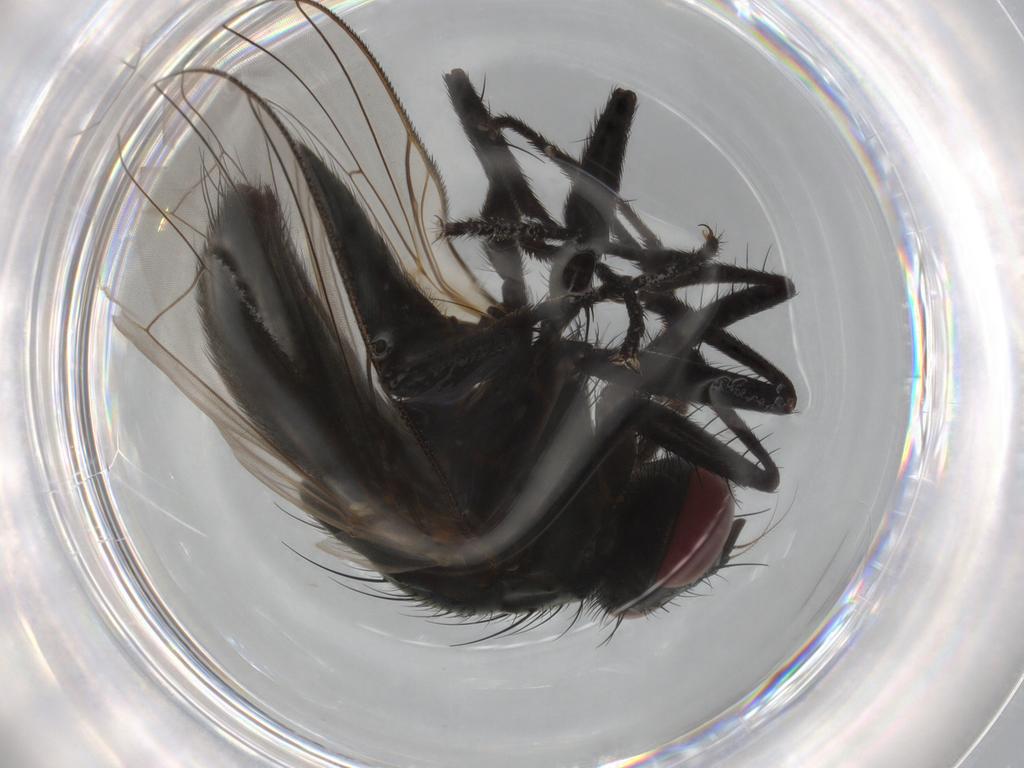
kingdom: Animalia
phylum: Arthropoda
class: Insecta
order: Diptera
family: Muscidae
